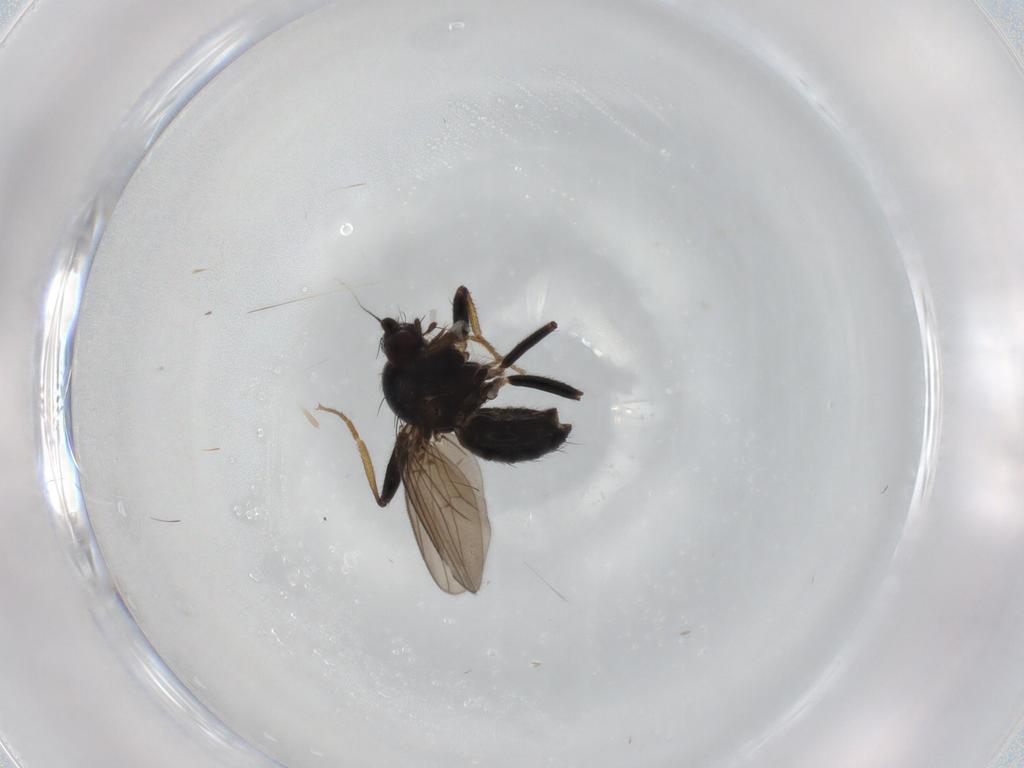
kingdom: Animalia
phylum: Arthropoda
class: Insecta
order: Diptera
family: Inbiomyiidae
